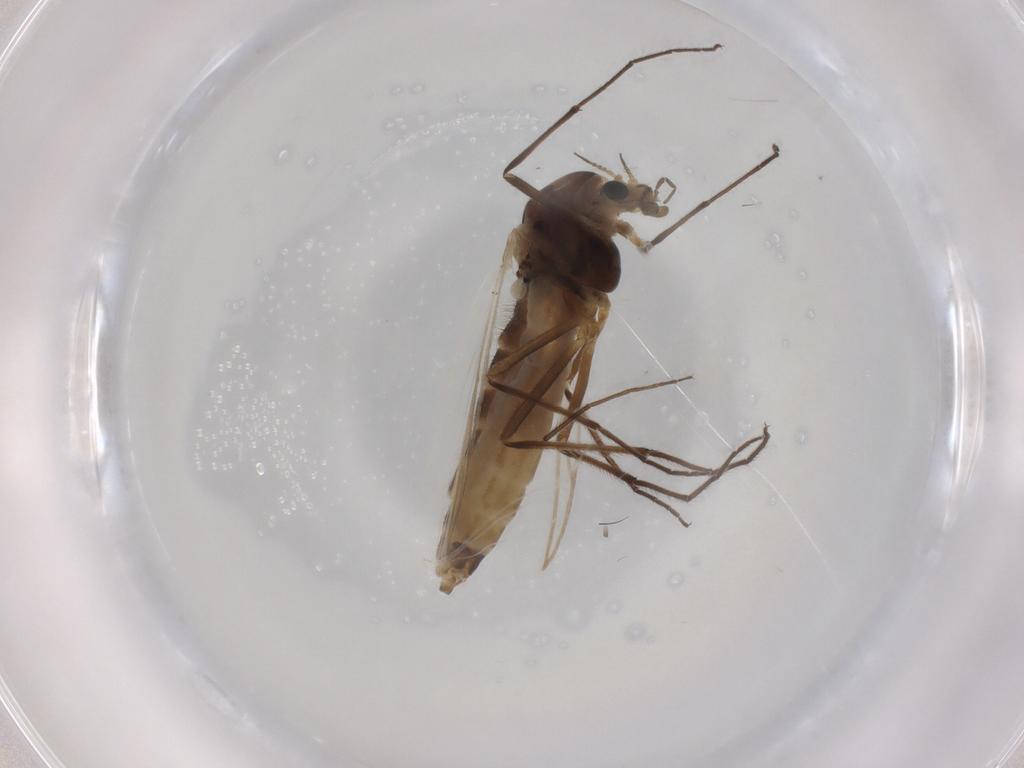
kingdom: Animalia
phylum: Arthropoda
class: Insecta
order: Diptera
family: Chironomidae
